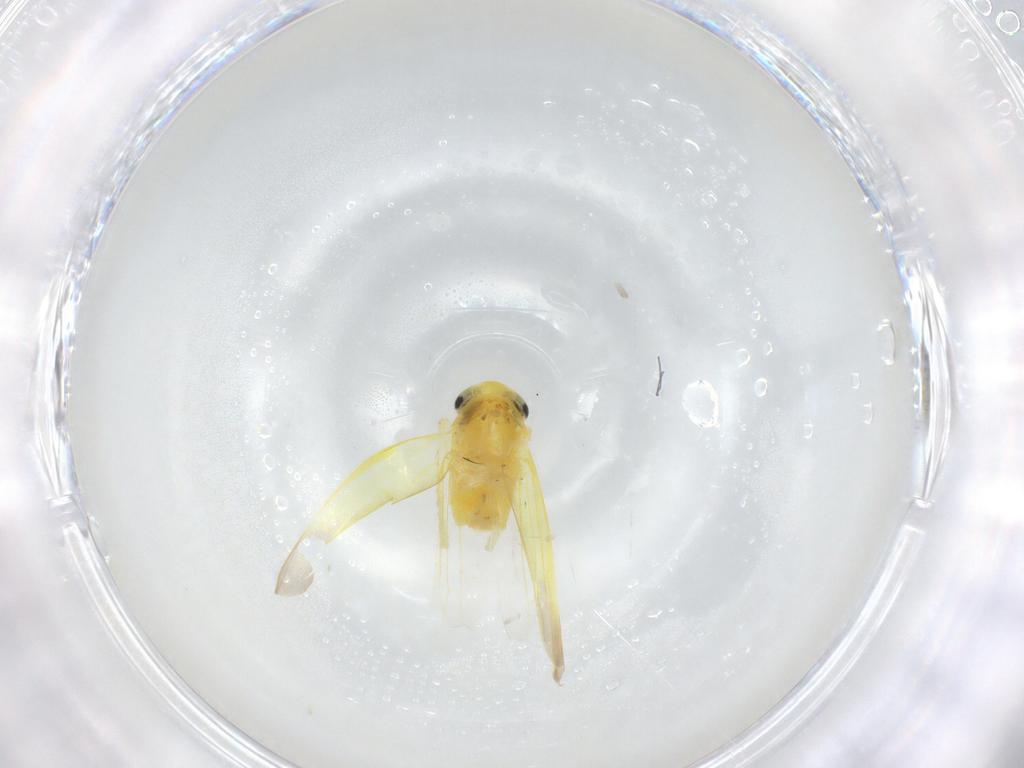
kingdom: Animalia
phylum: Arthropoda
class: Insecta
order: Hemiptera
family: Cicadellidae
